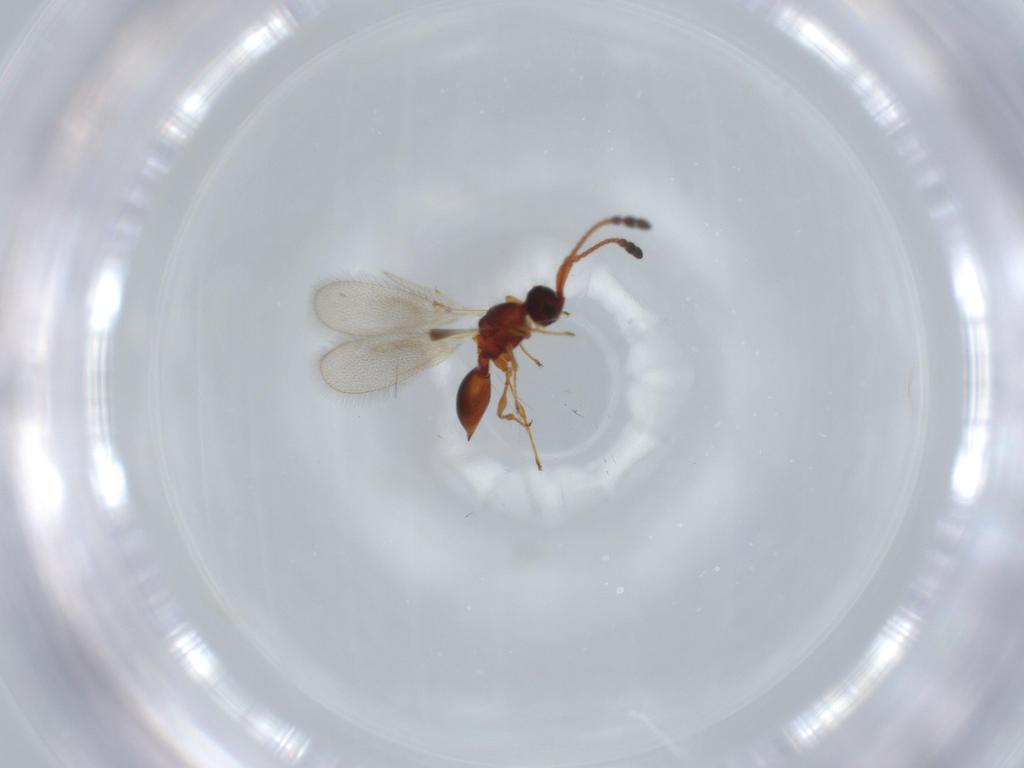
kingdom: Animalia
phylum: Arthropoda
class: Insecta
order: Hymenoptera
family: Diapriidae
